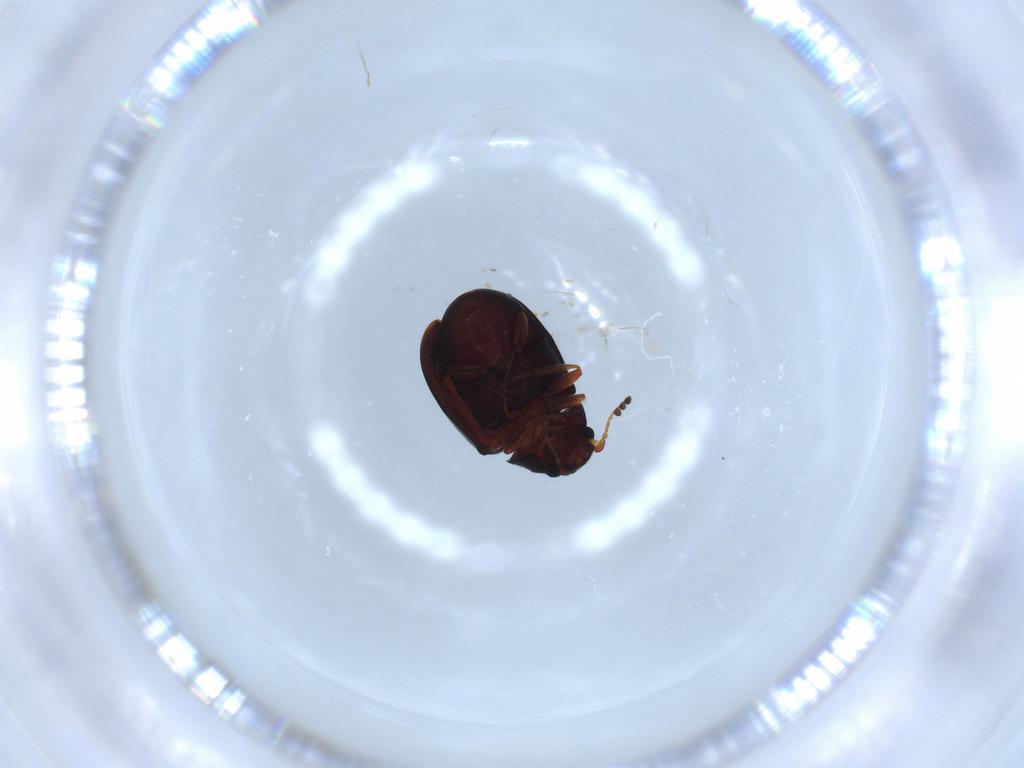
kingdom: Animalia
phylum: Arthropoda
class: Insecta
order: Coleoptera
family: Ptinidae
